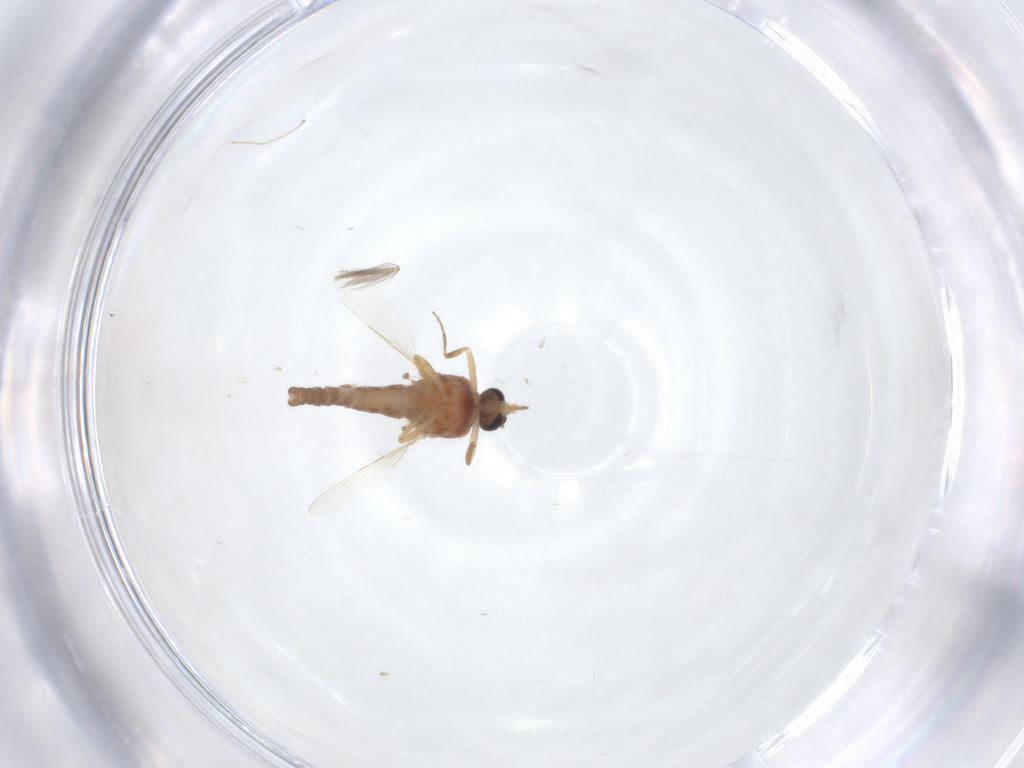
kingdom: Animalia
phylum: Arthropoda
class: Insecta
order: Diptera
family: Ceratopogonidae
